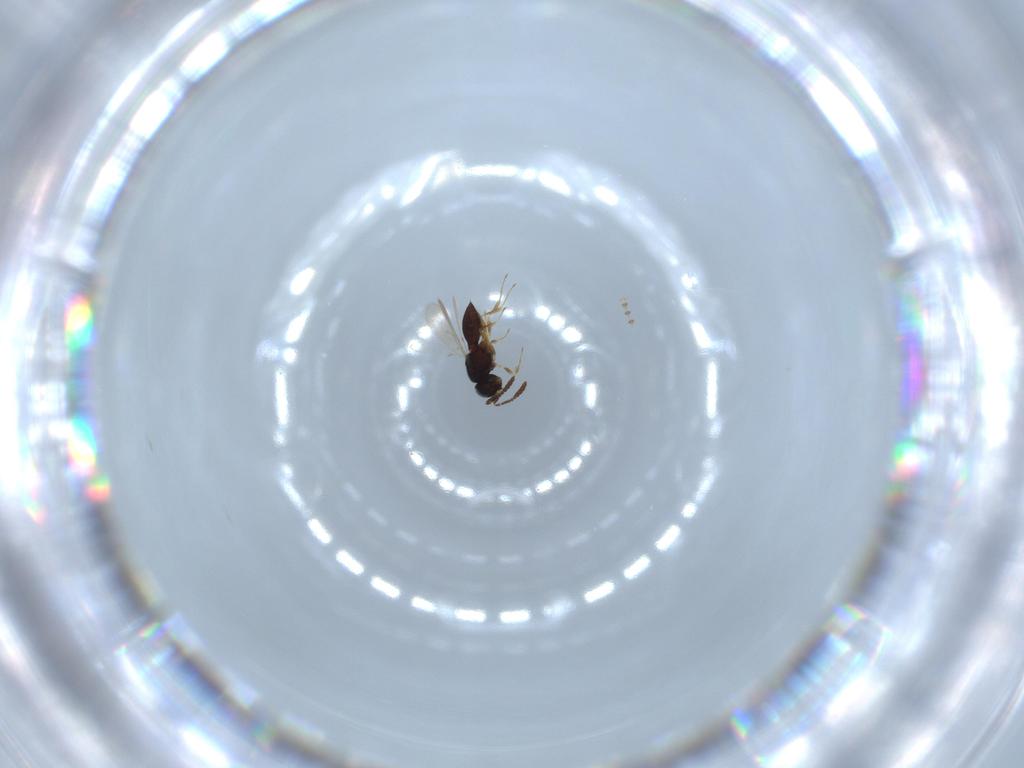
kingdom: Animalia
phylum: Arthropoda
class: Insecta
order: Hymenoptera
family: Scelionidae
